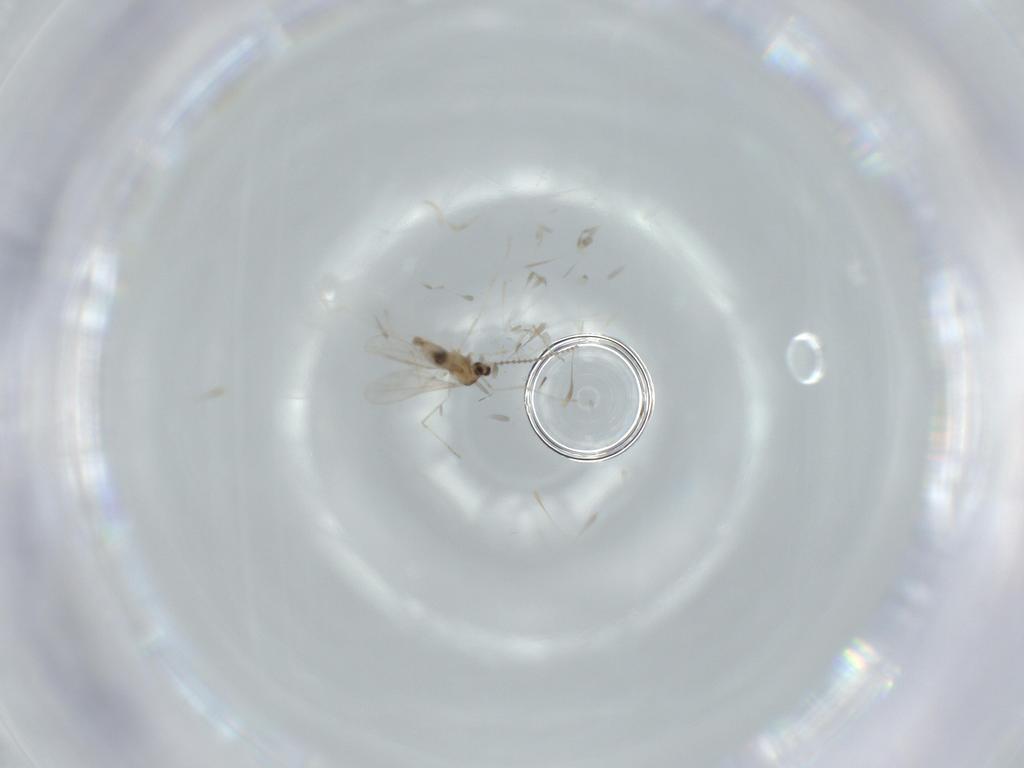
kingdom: Animalia
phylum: Arthropoda
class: Insecta
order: Diptera
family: Cecidomyiidae
